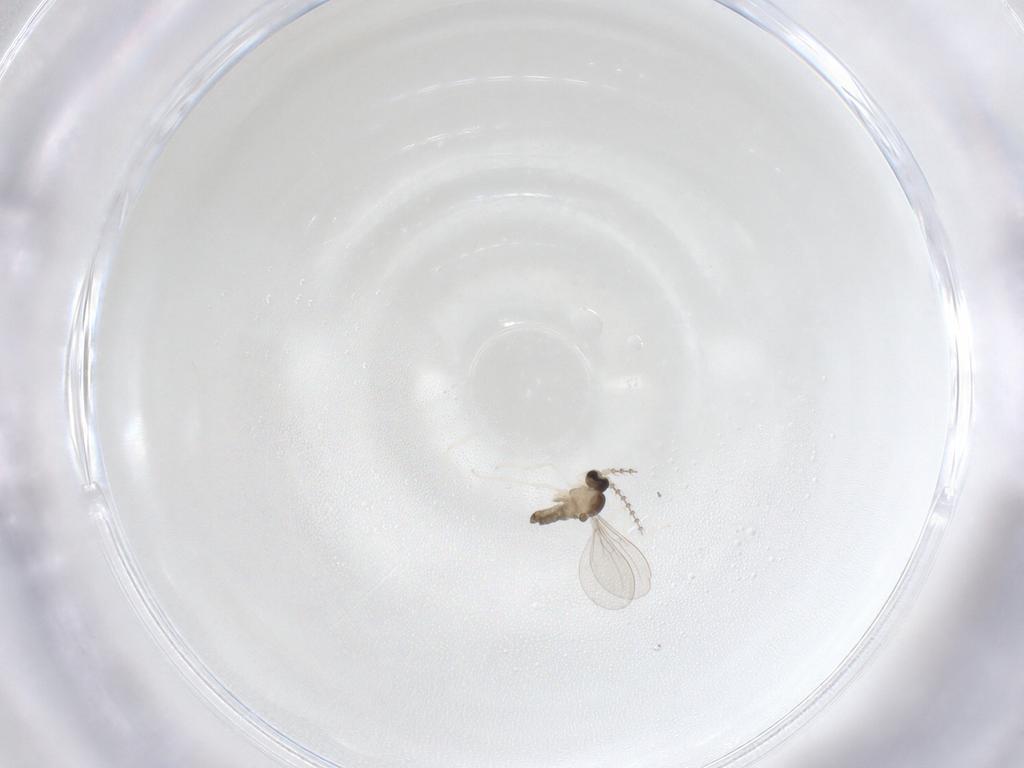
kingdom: Animalia
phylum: Arthropoda
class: Insecta
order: Diptera
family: Cecidomyiidae
